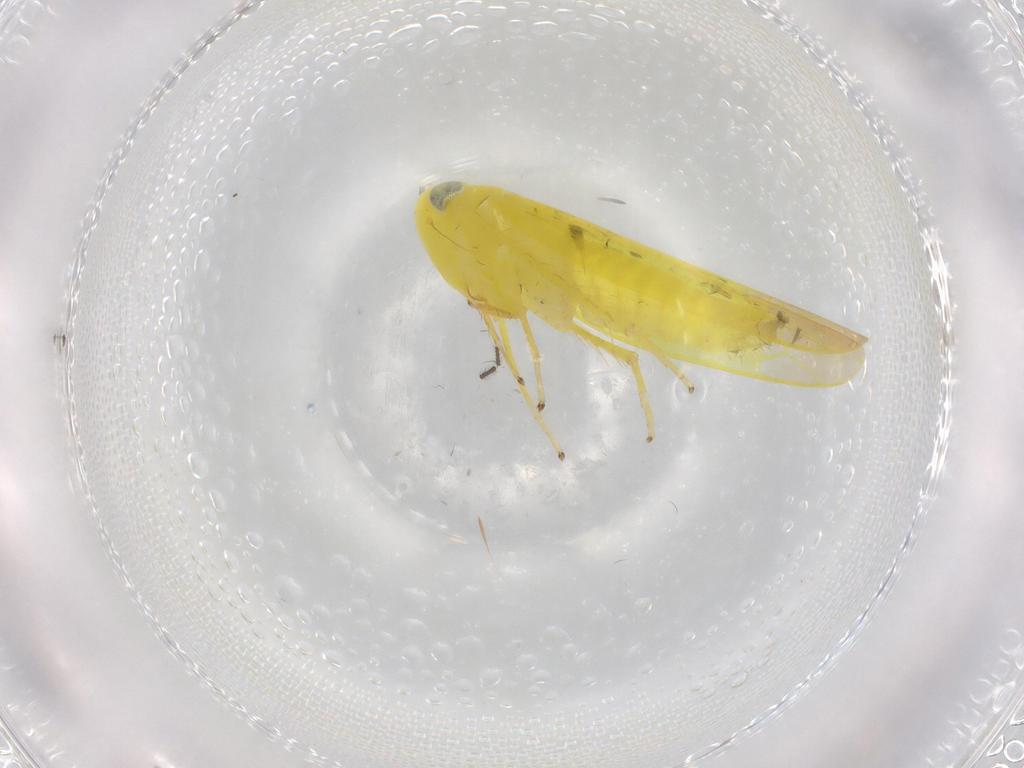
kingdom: Animalia
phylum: Arthropoda
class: Insecta
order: Hemiptera
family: Cicadellidae
